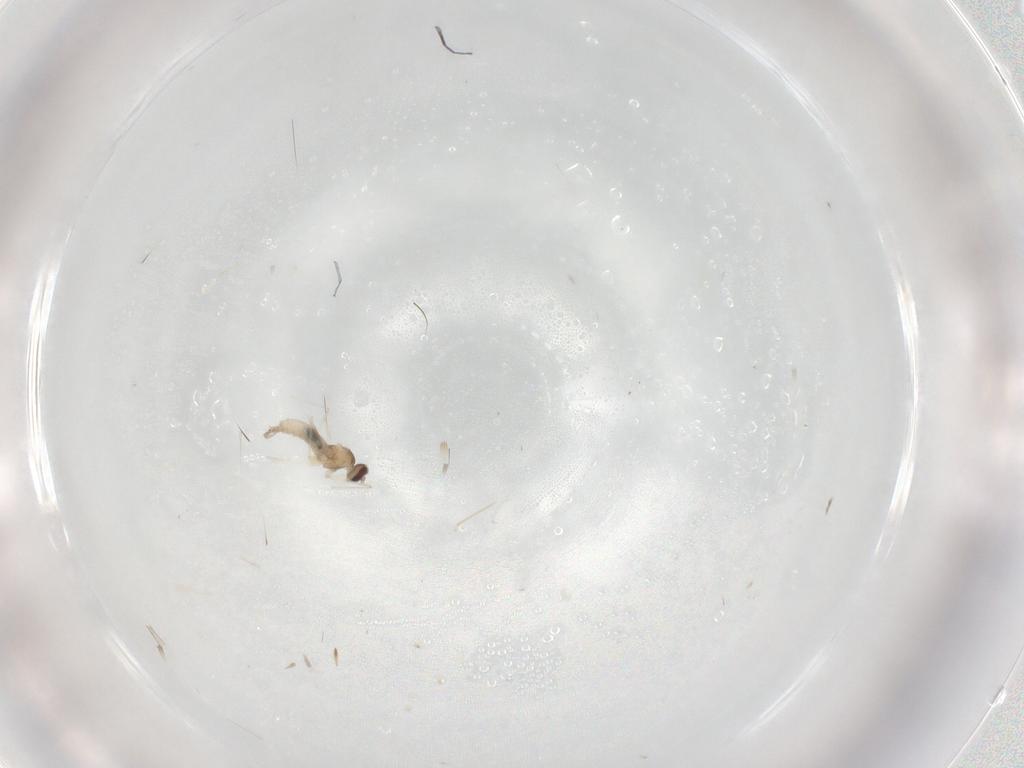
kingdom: Animalia
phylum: Arthropoda
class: Insecta
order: Diptera
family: Cecidomyiidae
